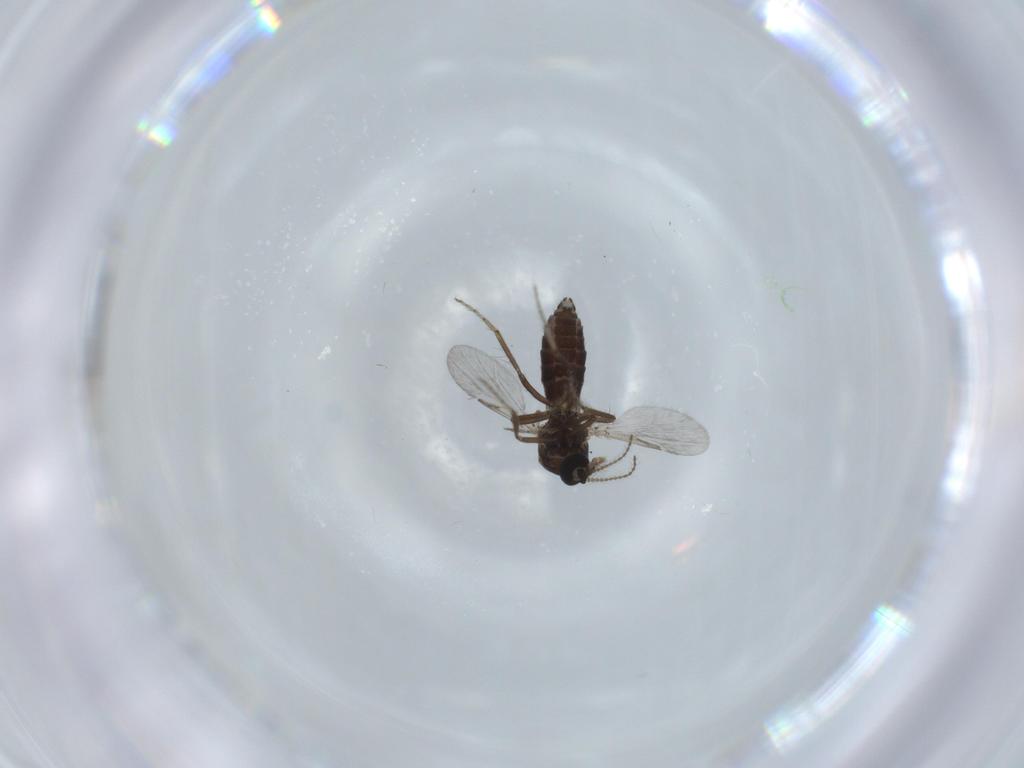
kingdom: Animalia
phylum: Arthropoda
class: Insecta
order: Diptera
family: Ceratopogonidae
